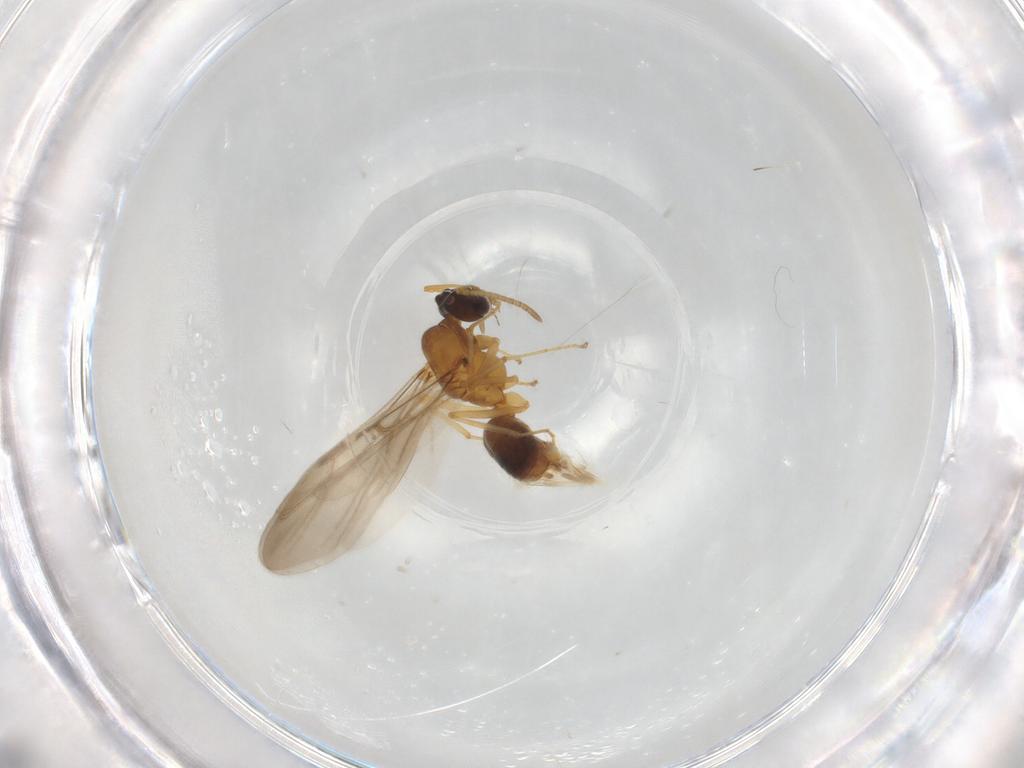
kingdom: Animalia
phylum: Arthropoda
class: Insecta
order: Hymenoptera
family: Formicidae
